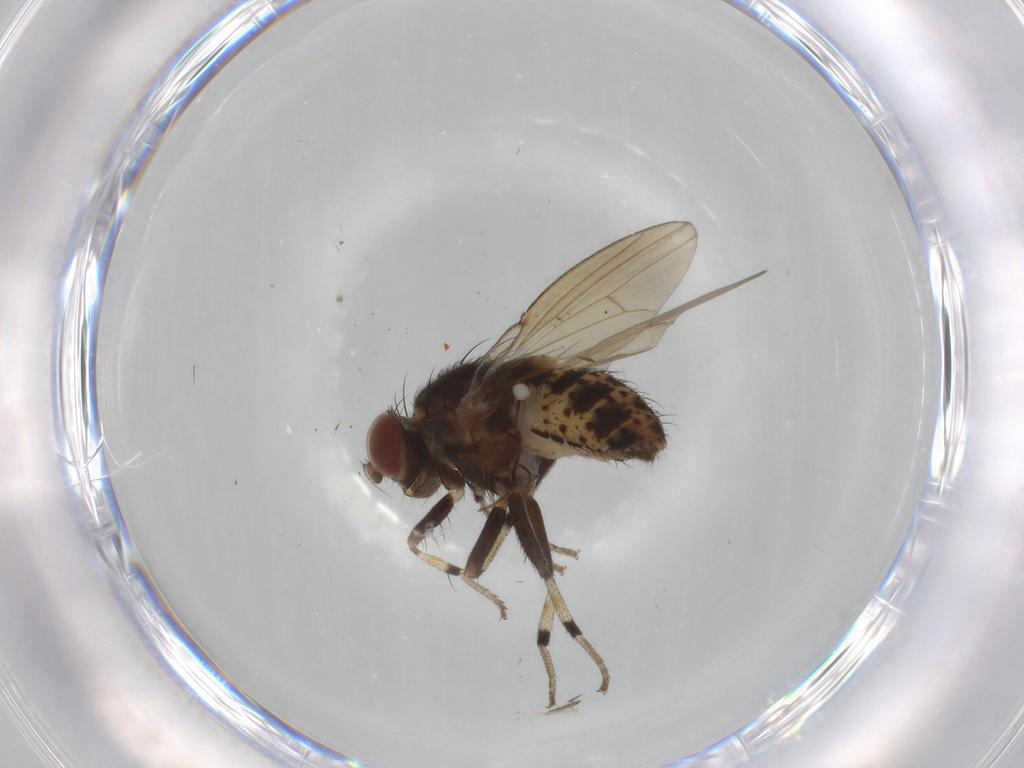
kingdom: Animalia
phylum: Arthropoda
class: Insecta
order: Diptera
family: Cecidomyiidae
